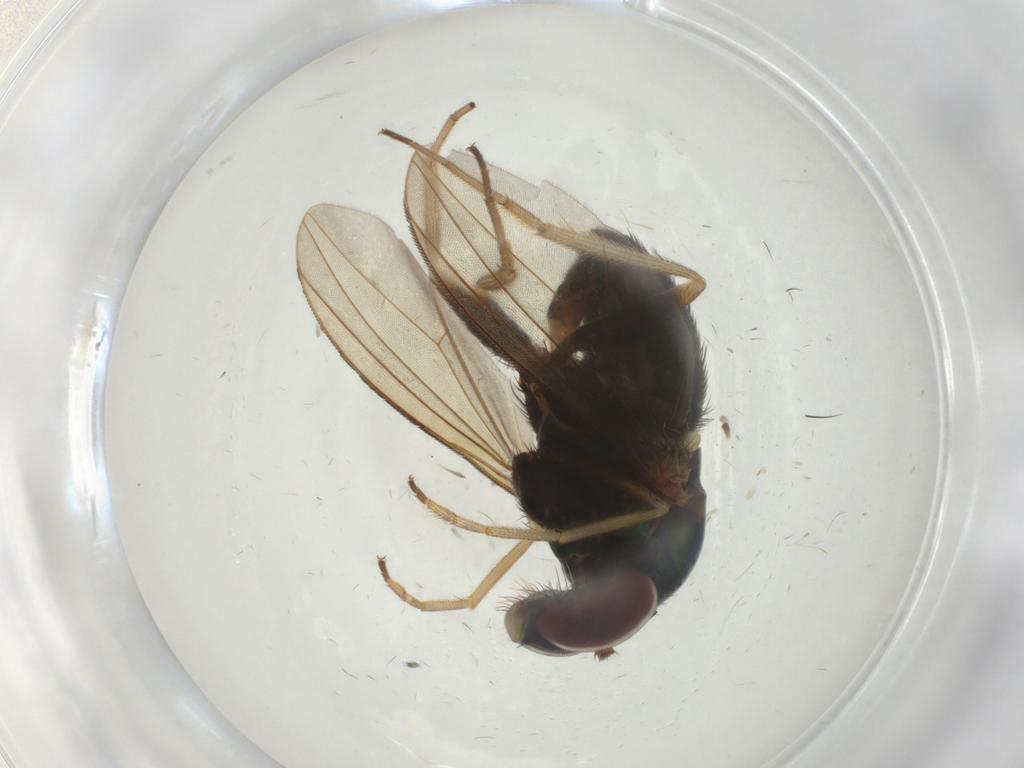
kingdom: Animalia
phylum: Arthropoda
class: Insecta
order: Diptera
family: Dolichopodidae
